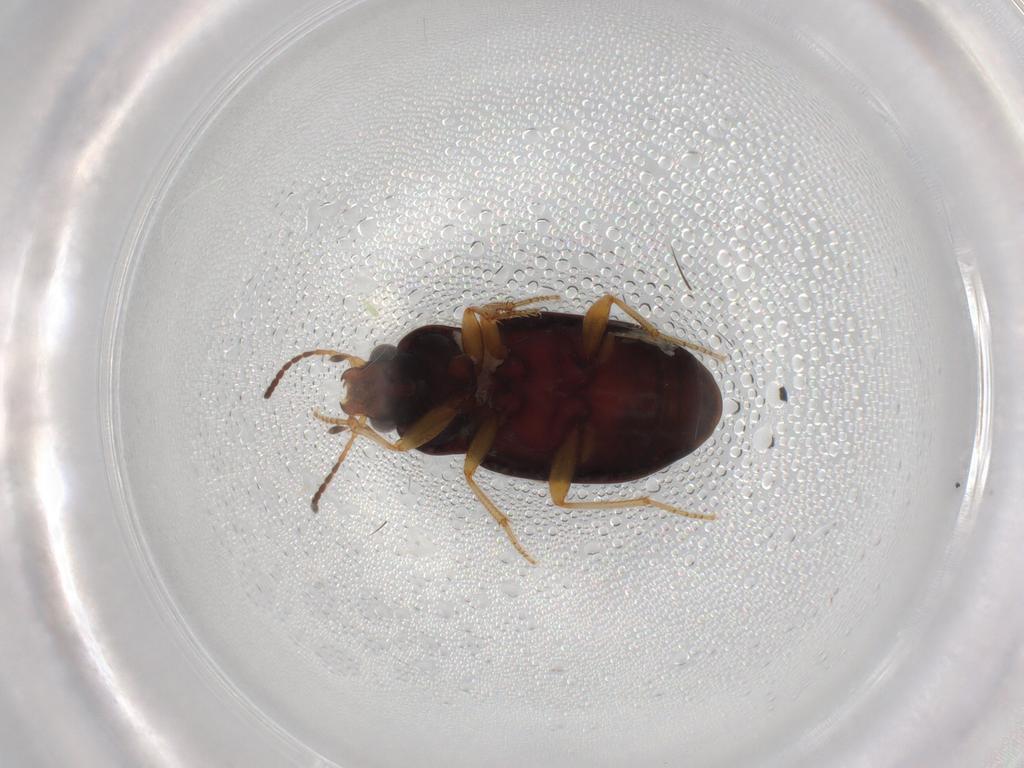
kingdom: Animalia
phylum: Arthropoda
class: Insecta
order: Coleoptera
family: Carabidae
